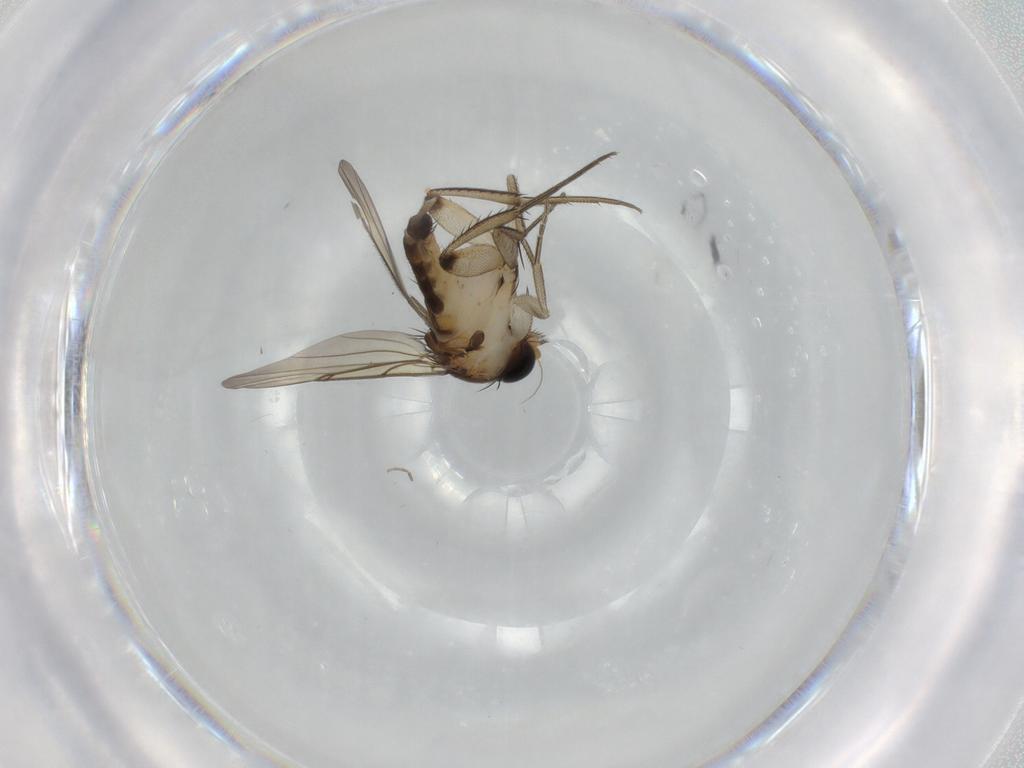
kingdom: Animalia
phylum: Arthropoda
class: Insecta
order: Diptera
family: Phoridae
